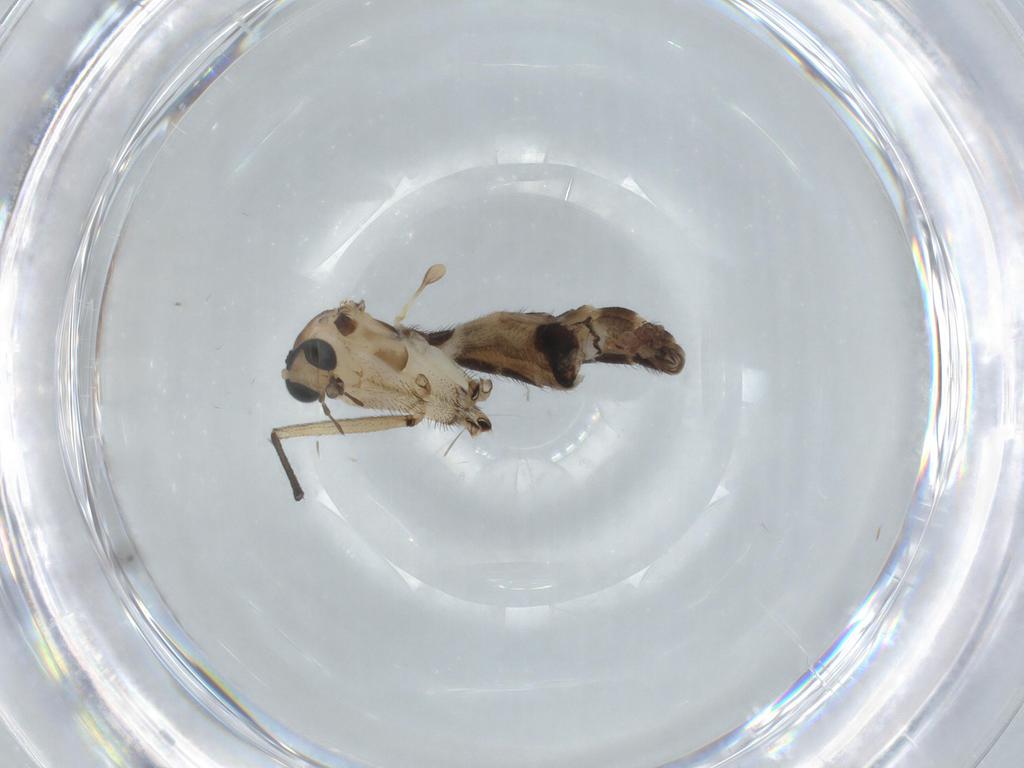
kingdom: Animalia
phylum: Arthropoda
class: Insecta
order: Diptera
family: Sciaridae
